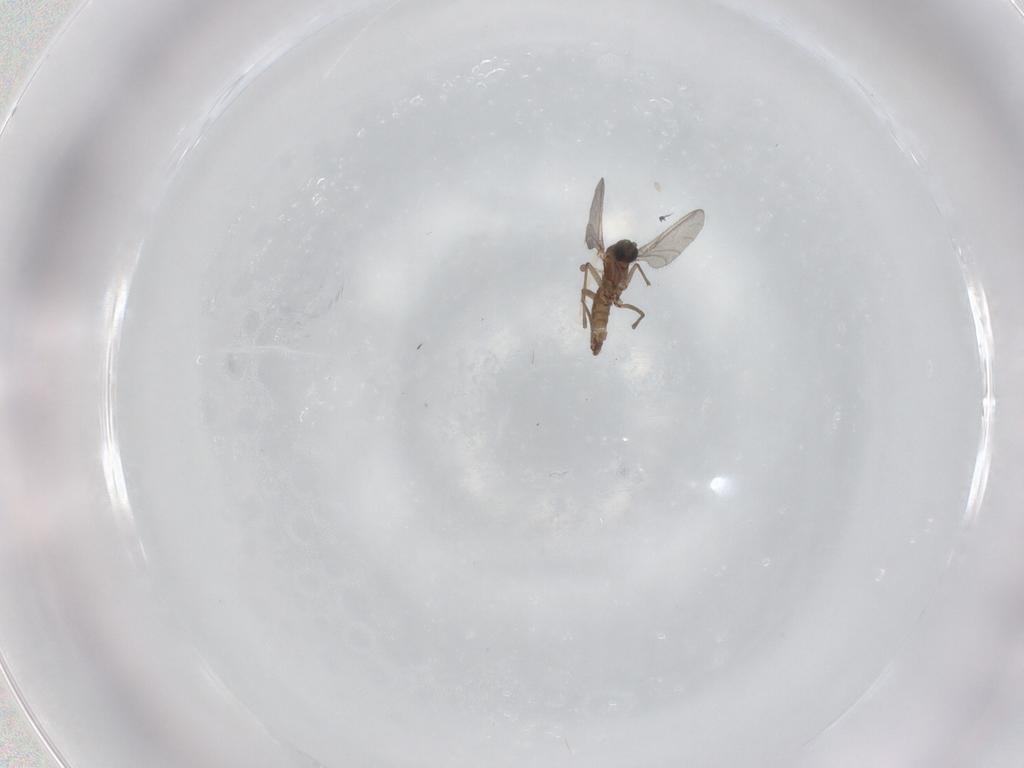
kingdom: Animalia
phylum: Arthropoda
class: Insecta
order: Diptera
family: Sciaridae
